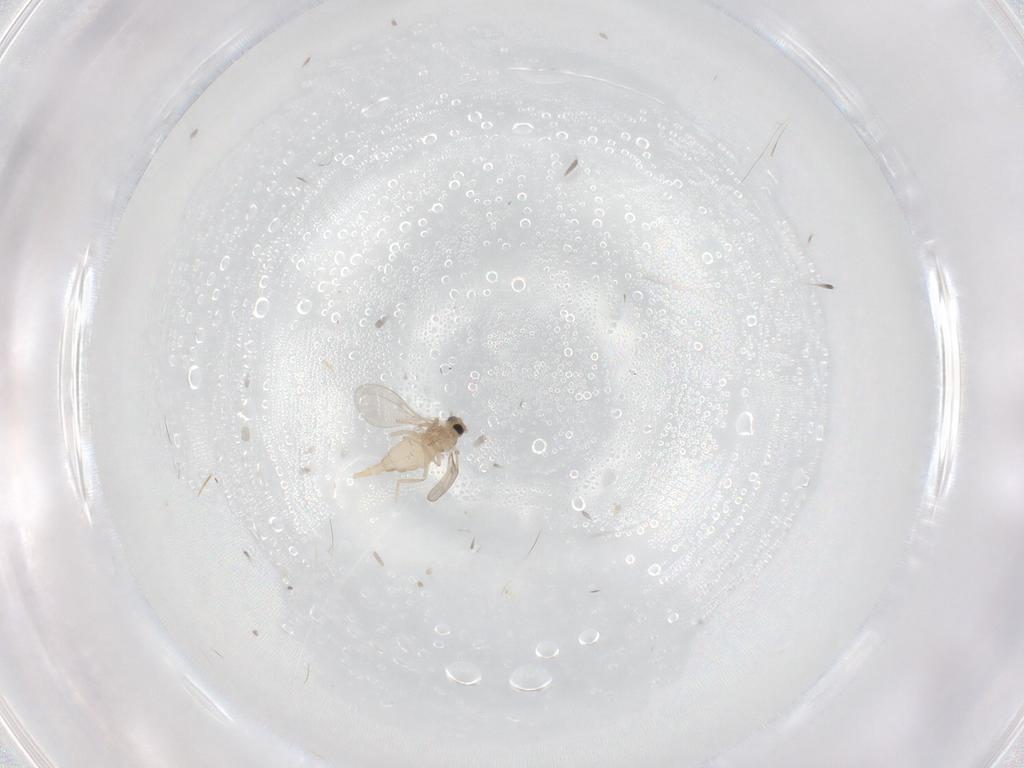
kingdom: Animalia
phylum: Arthropoda
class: Insecta
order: Diptera
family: Cecidomyiidae
